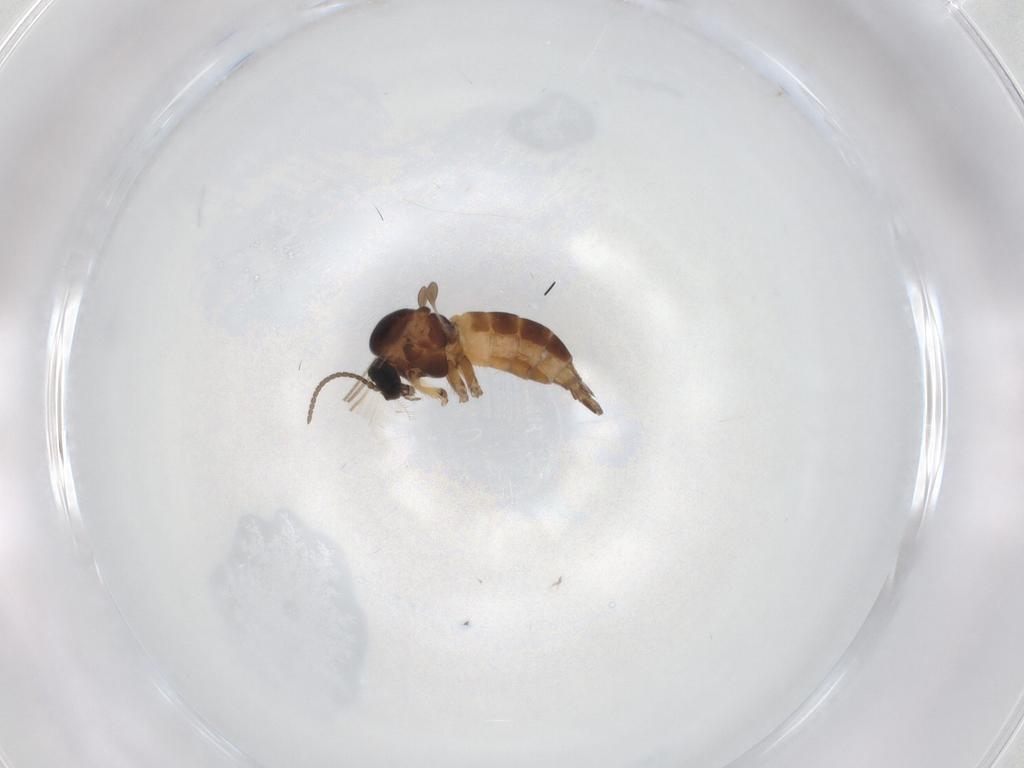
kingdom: Animalia
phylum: Arthropoda
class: Insecta
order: Diptera
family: Sciaridae
